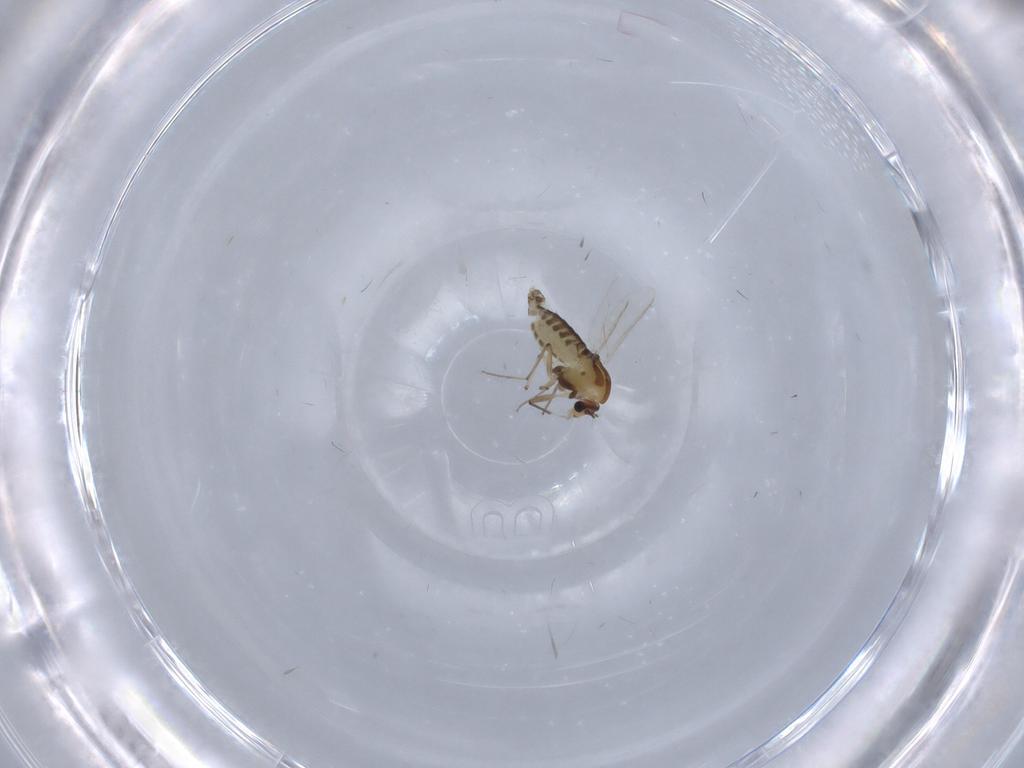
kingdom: Animalia
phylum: Arthropoda
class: Insecta
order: Diptera
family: Chironomidae
